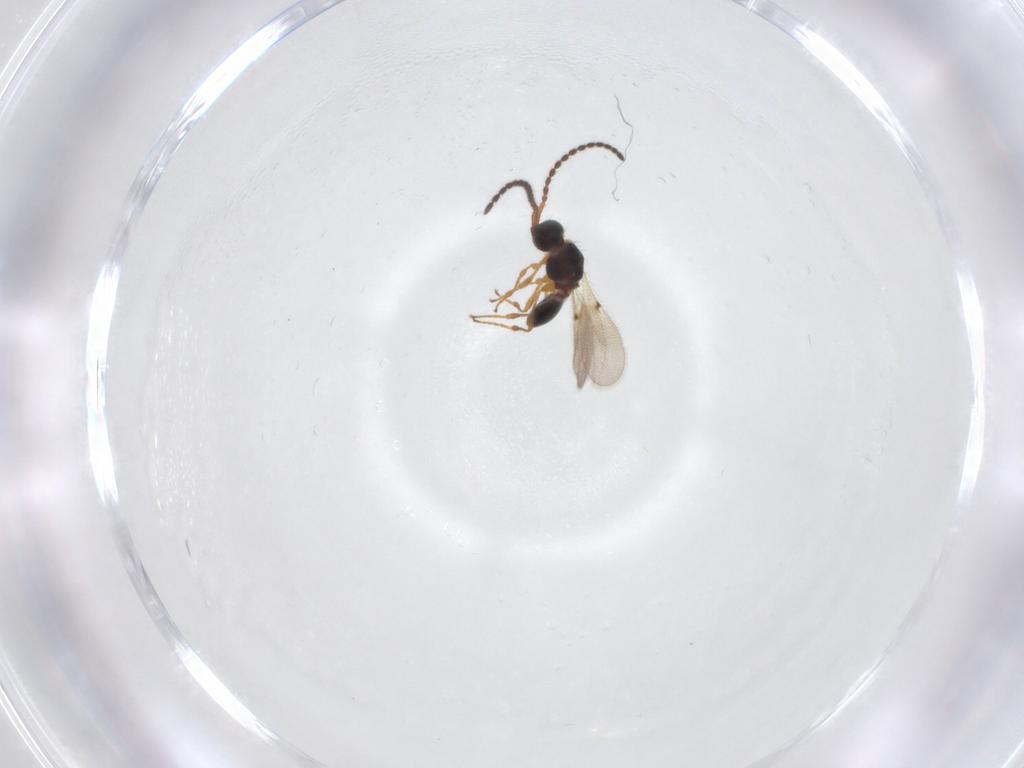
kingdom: Animalia
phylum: Arthropoda
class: Insecta
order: Hymenoptera
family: Diapriidae
